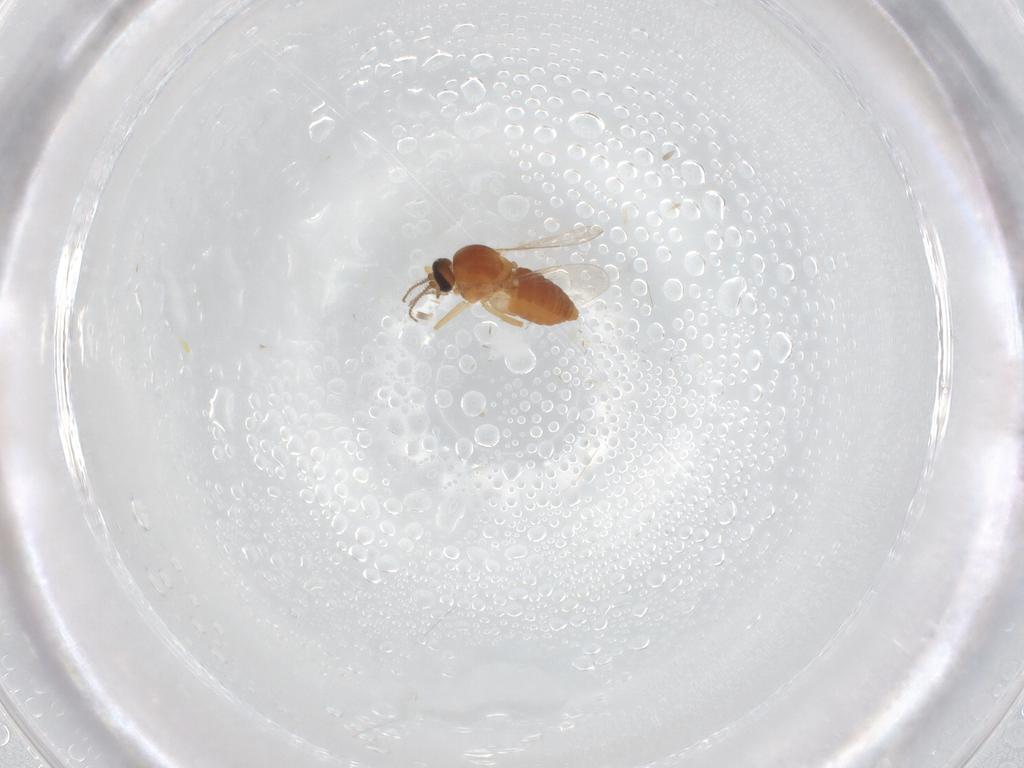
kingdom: Animalia
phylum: Arthropoda
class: Insecta
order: Diptera
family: Ceratopogonidae
